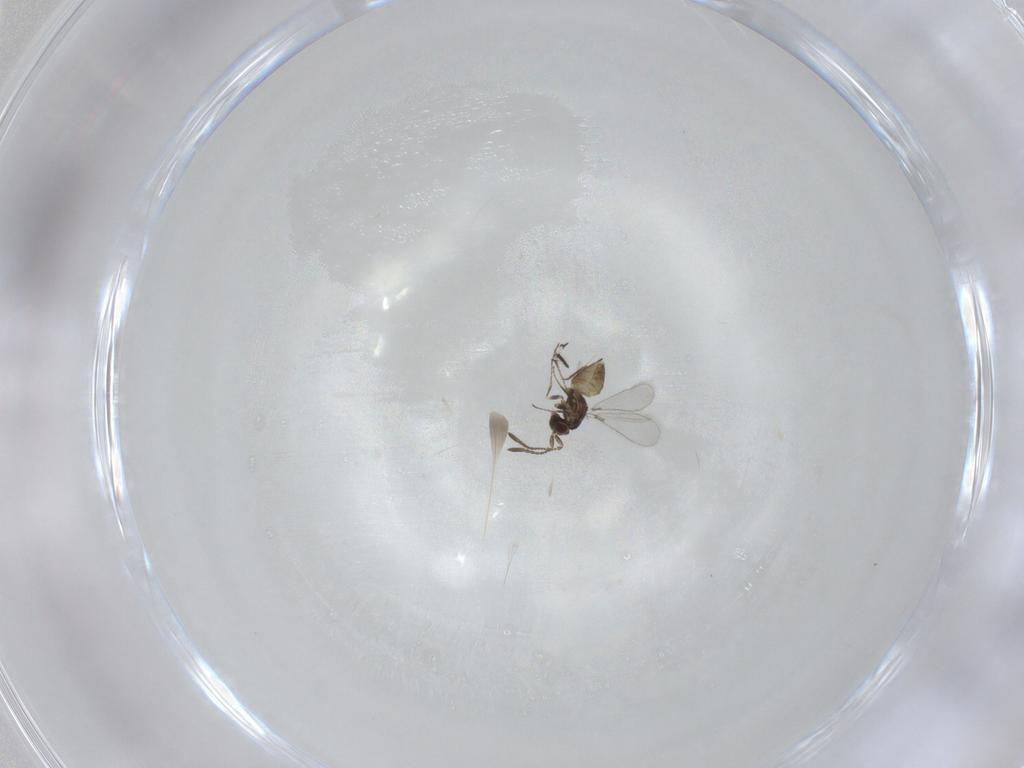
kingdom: Animalia
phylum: Arthropoda
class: Insecta
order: Hymenoptera
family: Mymaridae
